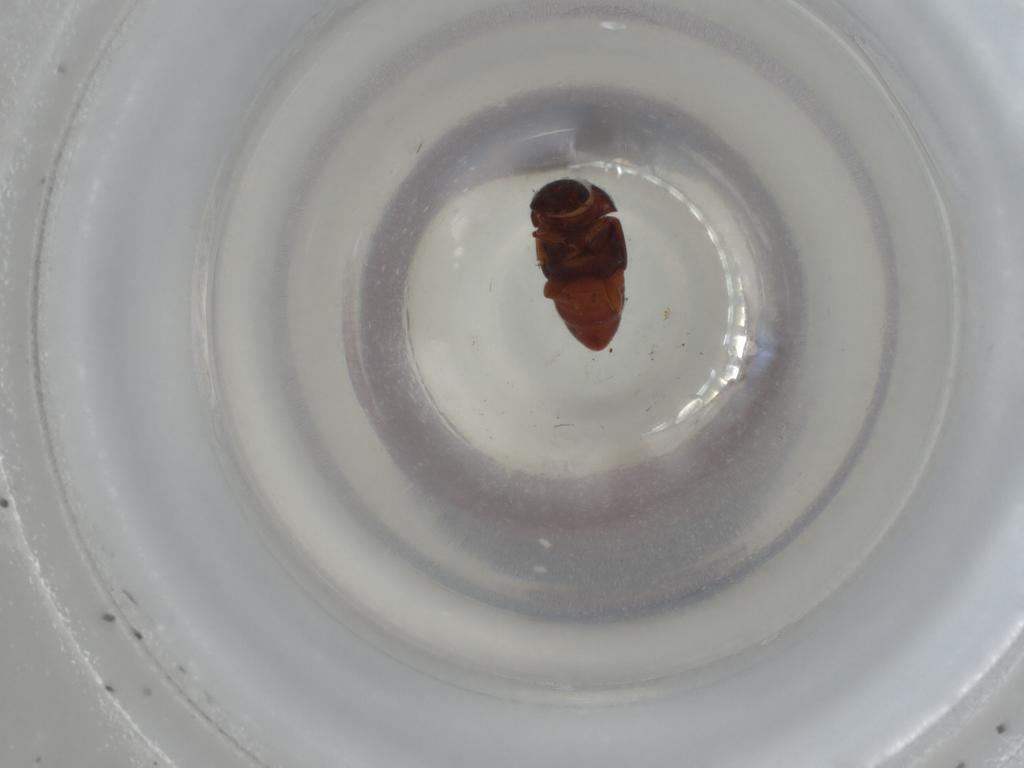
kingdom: Animalia
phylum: Arthropoda
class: Insecta
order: Coleoptera
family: Nitidulidae
